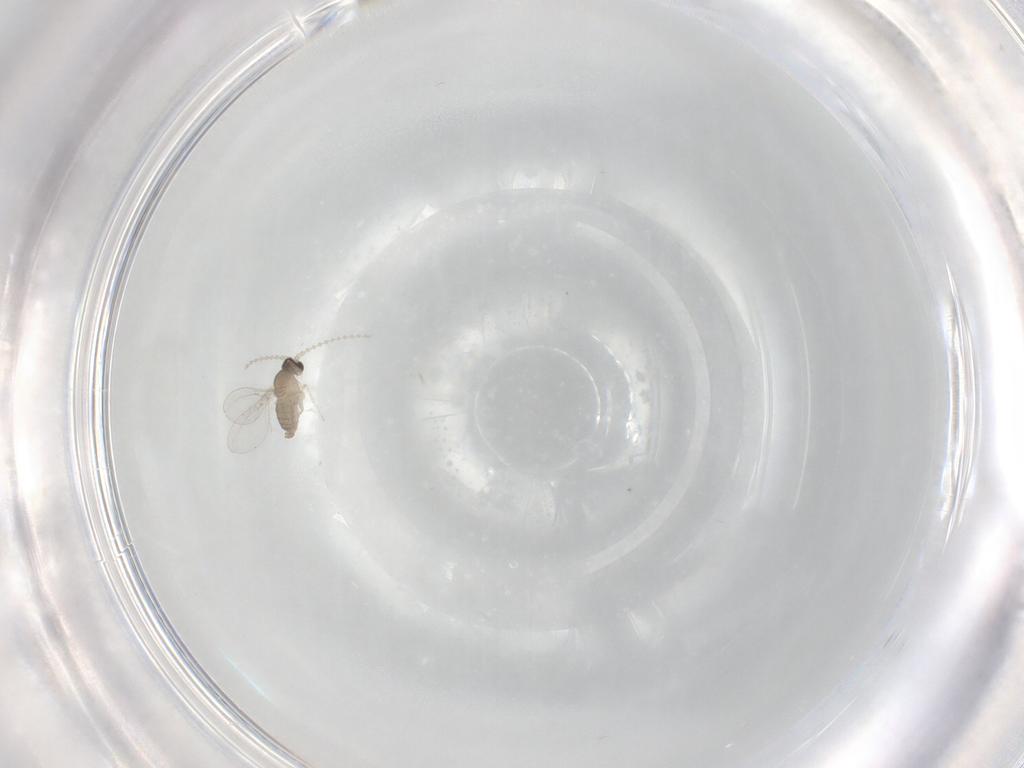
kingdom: Animalia
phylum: Arthropoda
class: Insecta
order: Diptera
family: Cecidomyiidae
